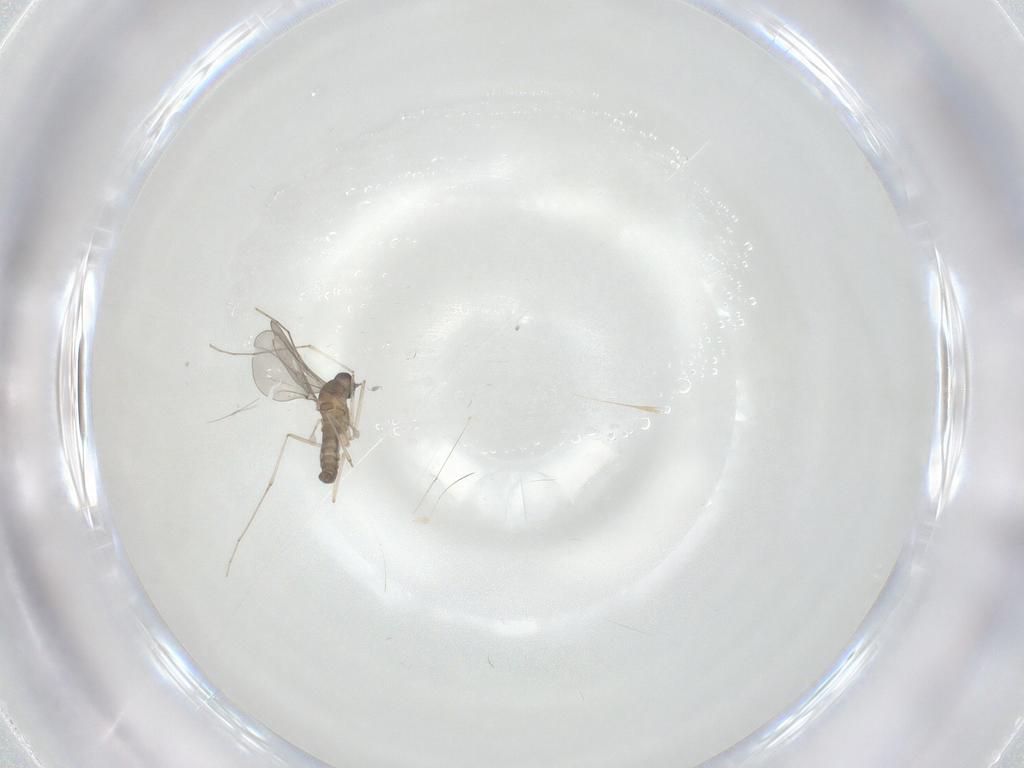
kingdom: Animalia
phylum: Arthropoda
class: Insecta
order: Diptera
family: Cecidomyiidae
